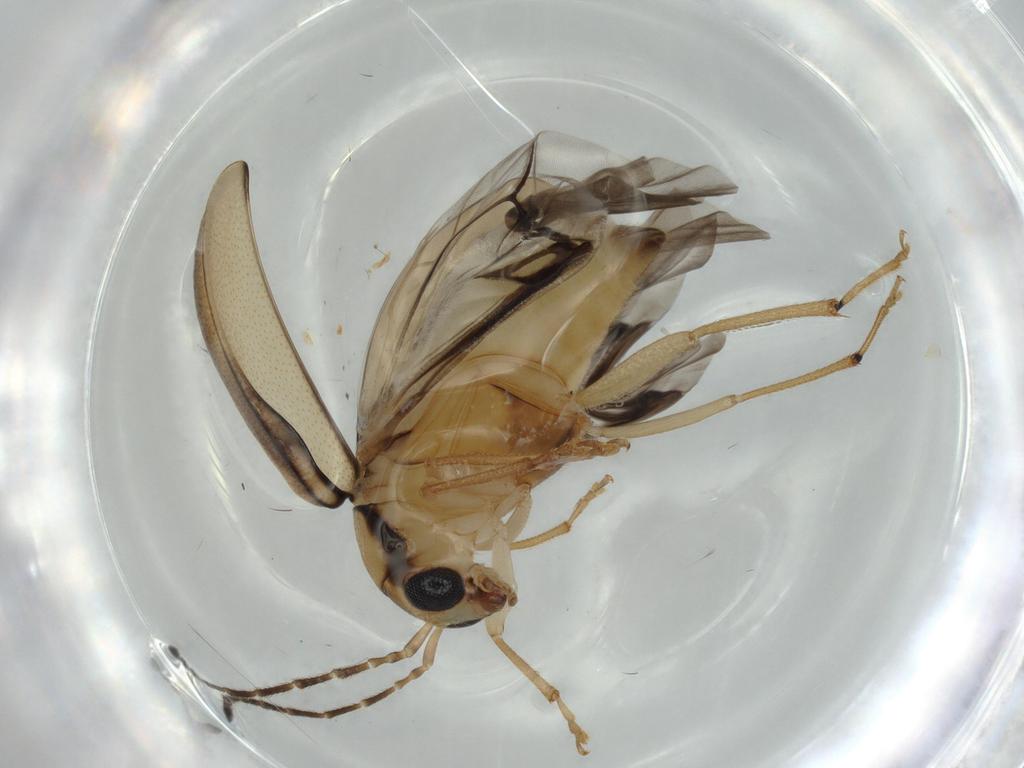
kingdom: Animalia
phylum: Arthropoda
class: Insecta
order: Coleoptera
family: Chrysomelidae
